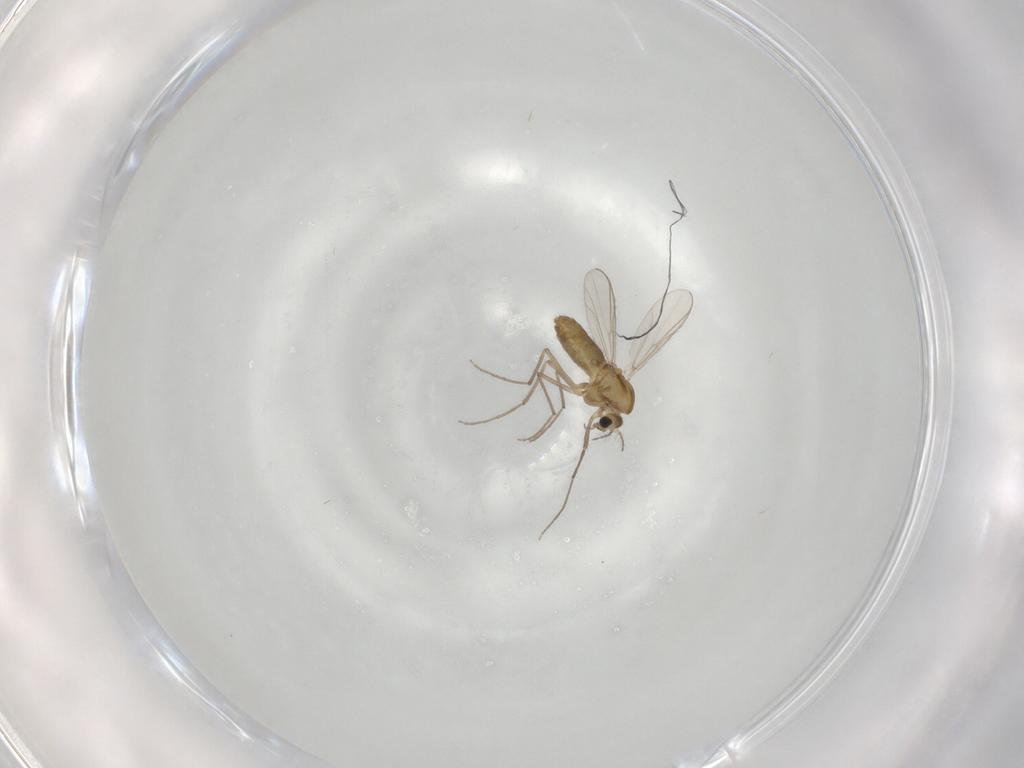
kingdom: Animalia
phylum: Arthropoda
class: Insecta
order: Diptera
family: Chironomidae
